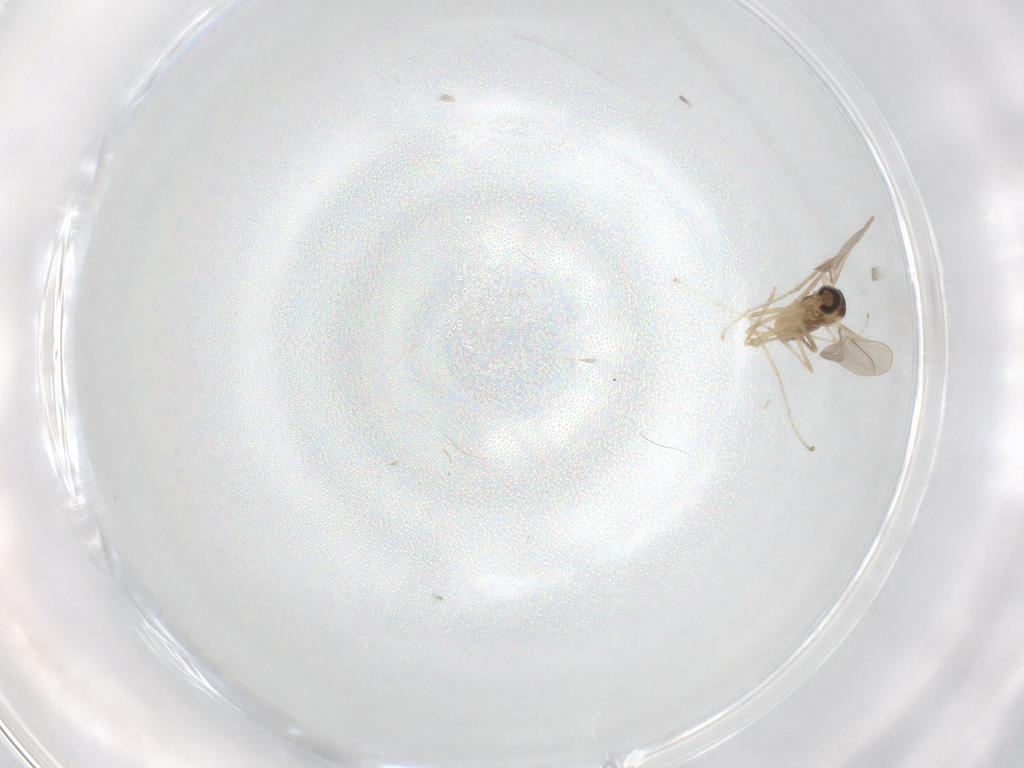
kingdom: Animalia
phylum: Arthropoda
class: Insecta
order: Diptera
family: Cecidomyiidae
